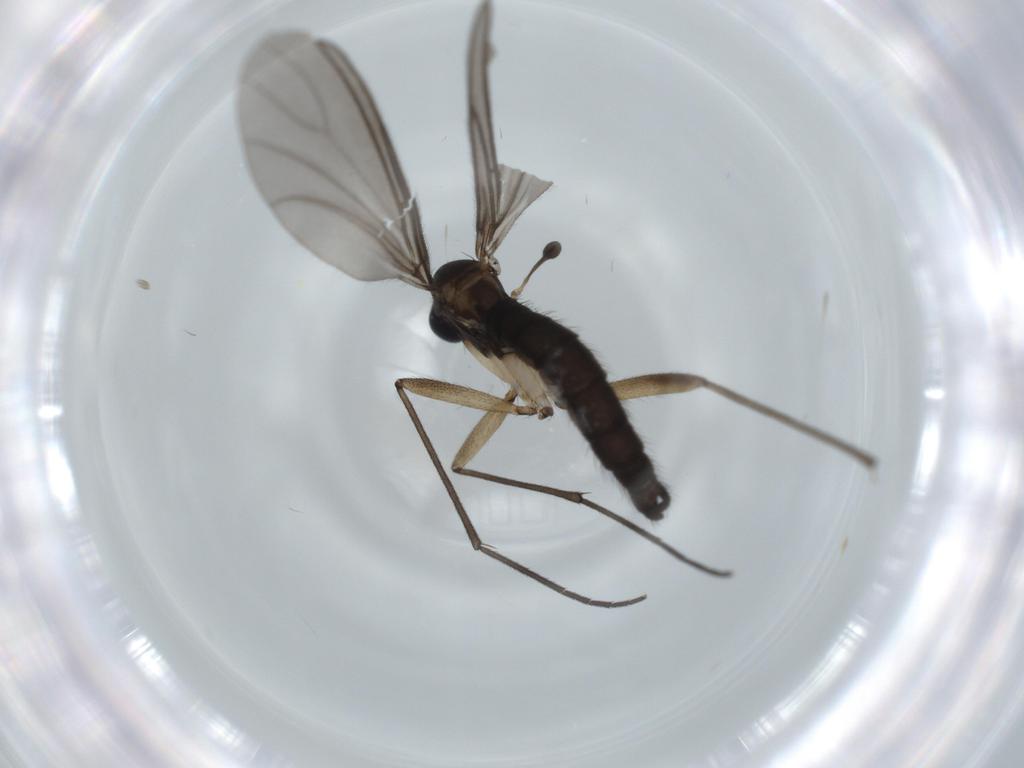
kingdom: Animalia
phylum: Arthropoda
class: Insecta
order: Diptera
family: Sciaridae
